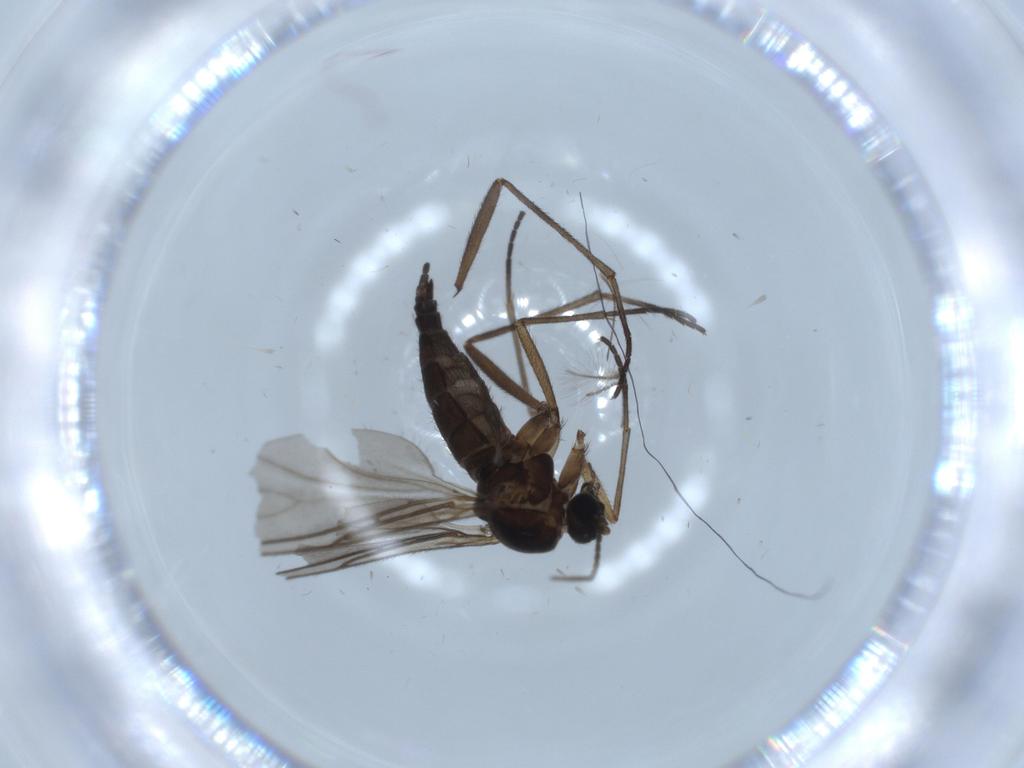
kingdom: Animalia
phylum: Arthropoda
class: Insecta
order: Diptera
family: Sciaridae
